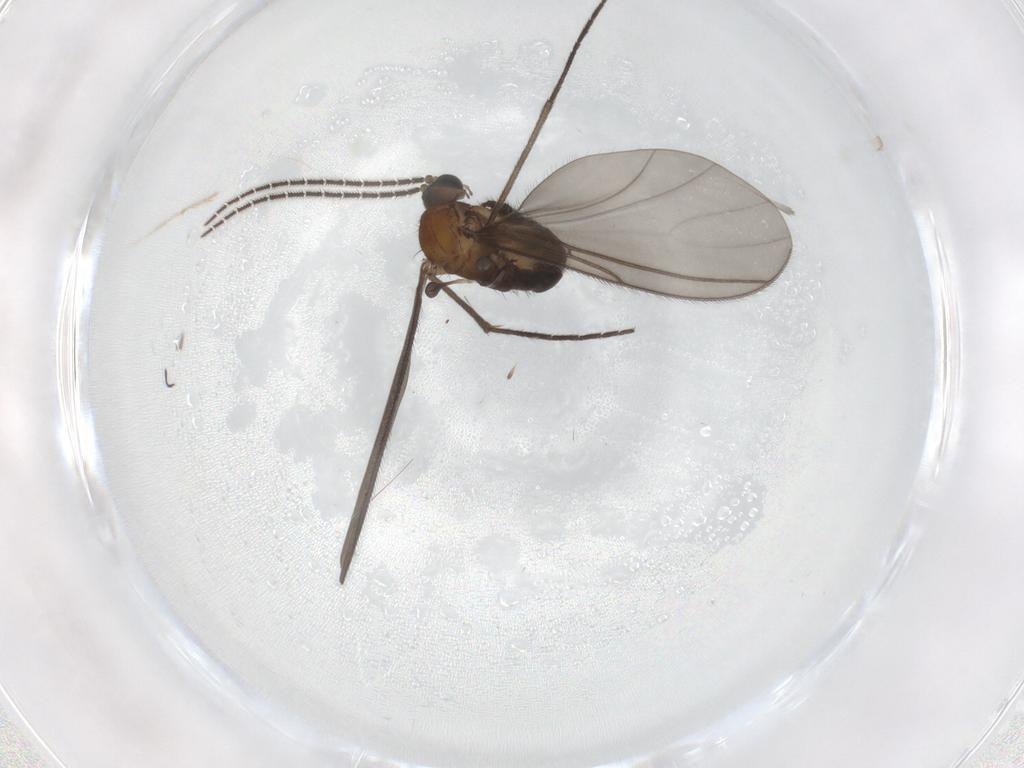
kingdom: Animalia
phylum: Arthropoda
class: Insecta
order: Diptera
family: Sciaridae
